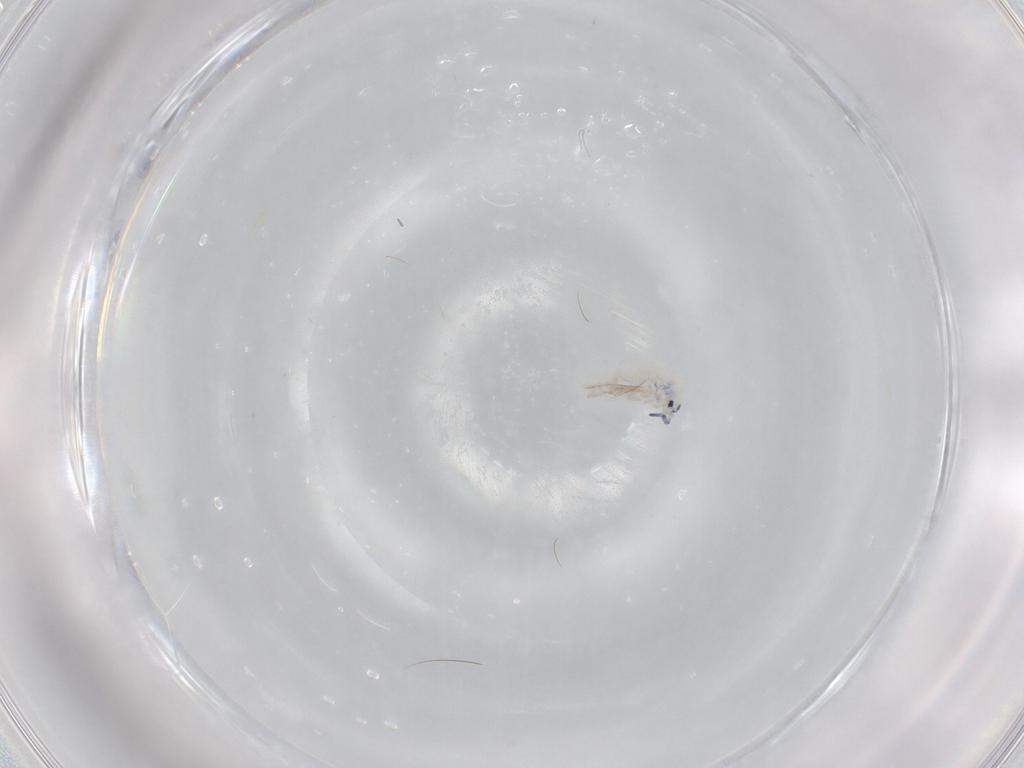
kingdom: Animalia
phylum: Arthropoda
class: Collembola
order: Entomobryomorpha
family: Entomobryidae
